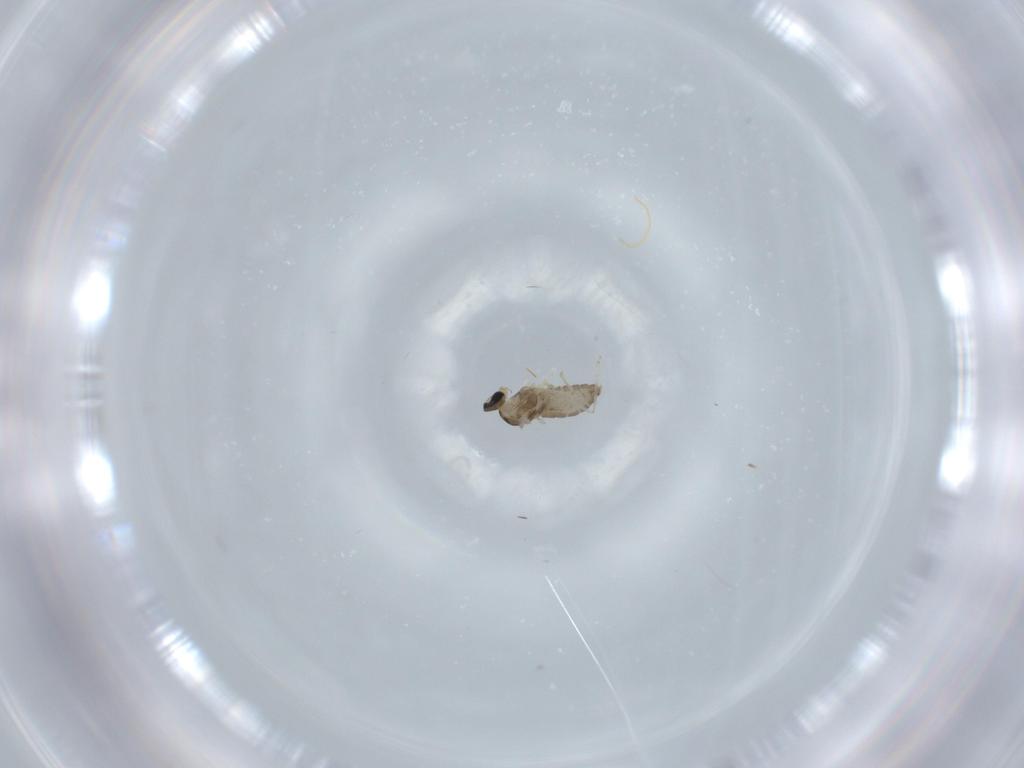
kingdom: Animalia
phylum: Arthropoda
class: Insecta
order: Diptera
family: Cecidomyiidae
